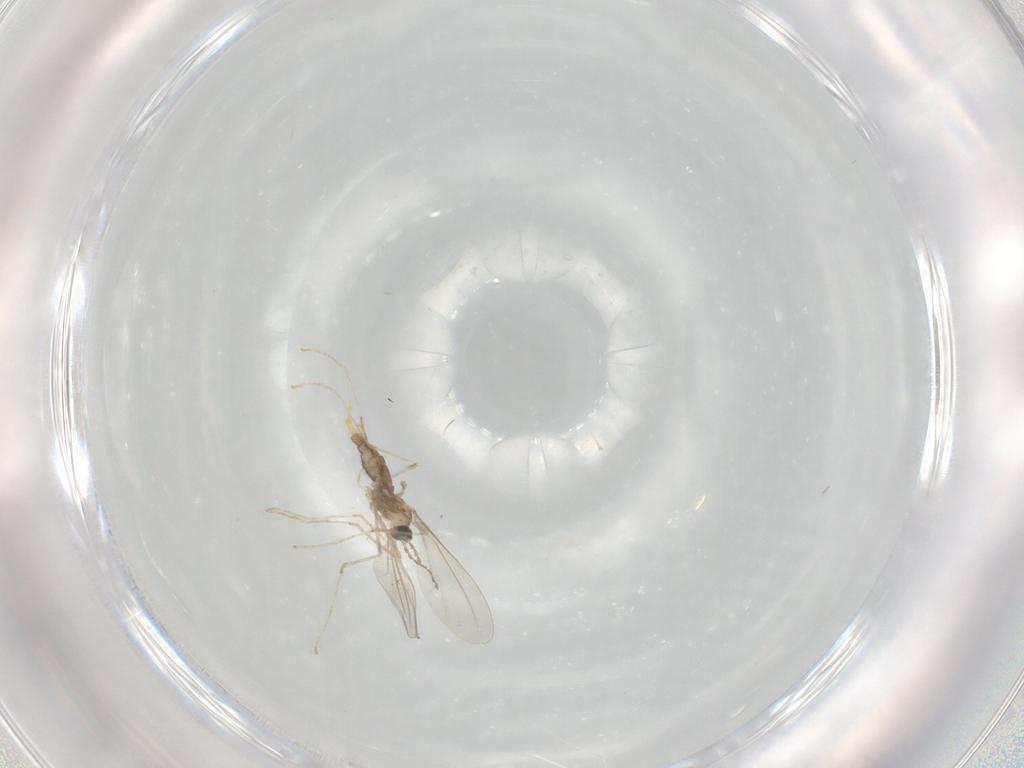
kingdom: Animalia
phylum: Arthropoda
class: Insecta
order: Diptera
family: Cecidomyiidae
